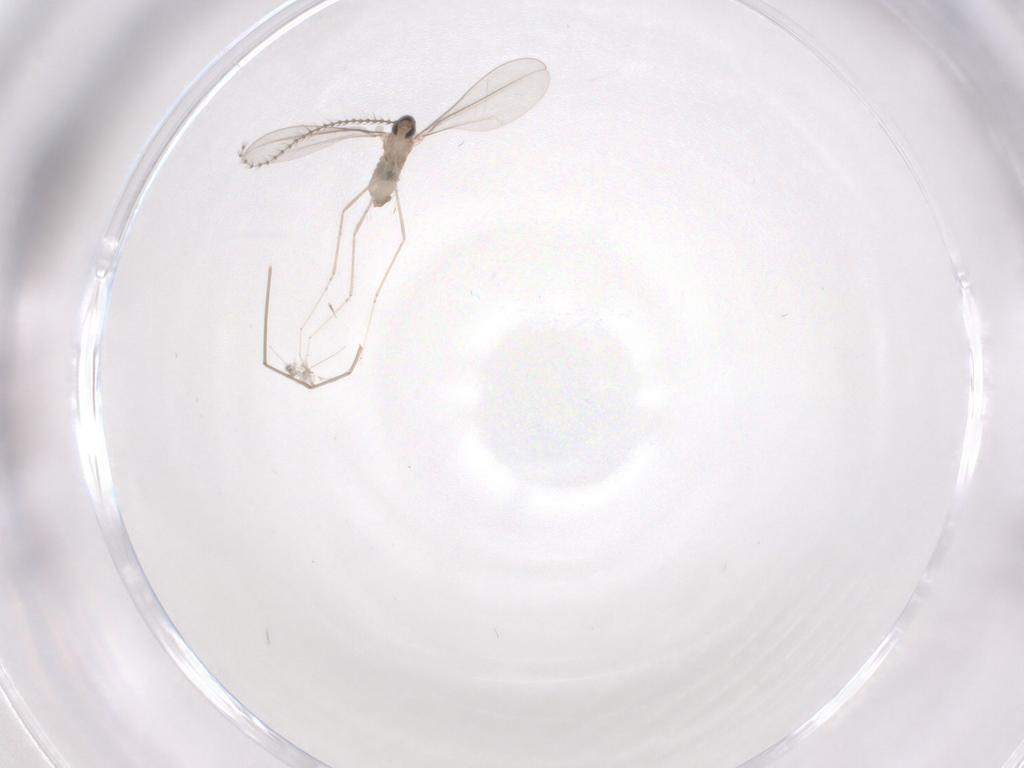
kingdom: Animalia
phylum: Arthropoda
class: Insecta
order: Diptera
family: Cecidomyiidae
